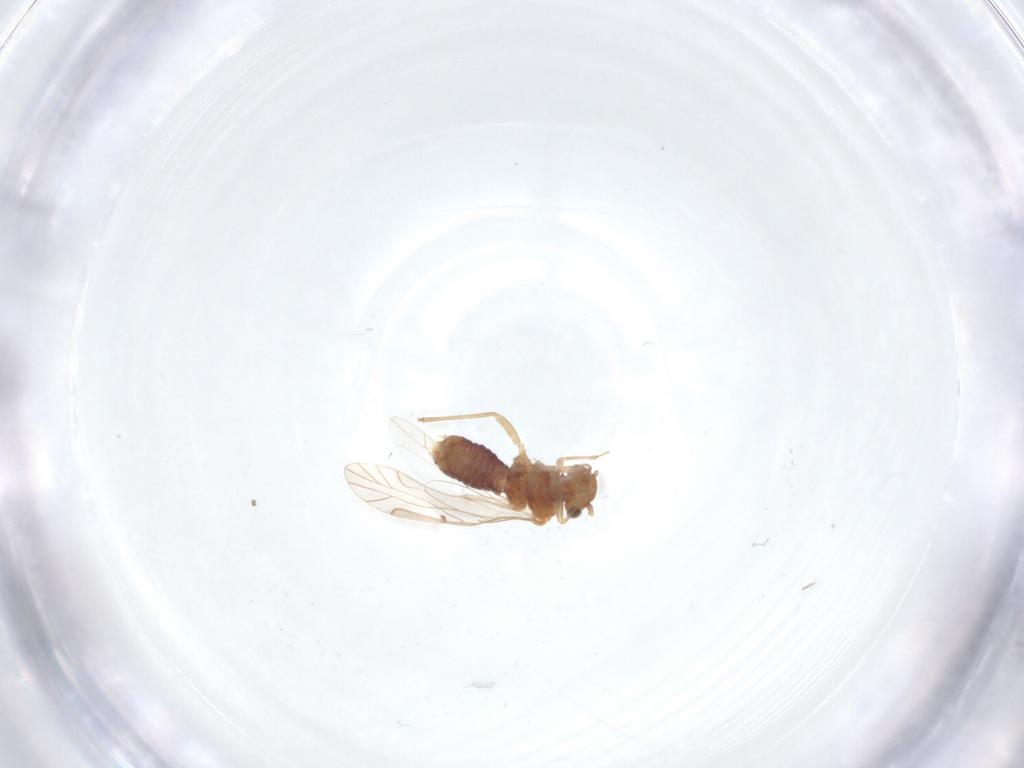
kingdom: Animalia
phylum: Arthropoda
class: Insecta
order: Psocodea
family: Lachesillidae
